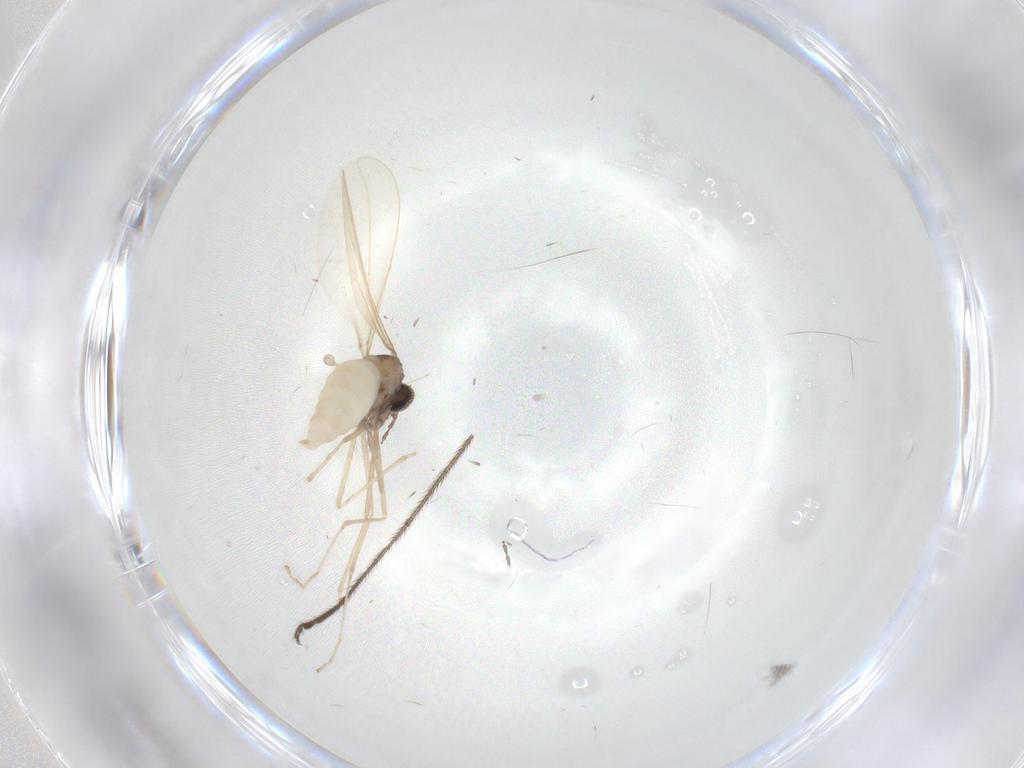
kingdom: Animalia
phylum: Arthropoda
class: Insecta
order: Diptera
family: Cecidomyiidae
